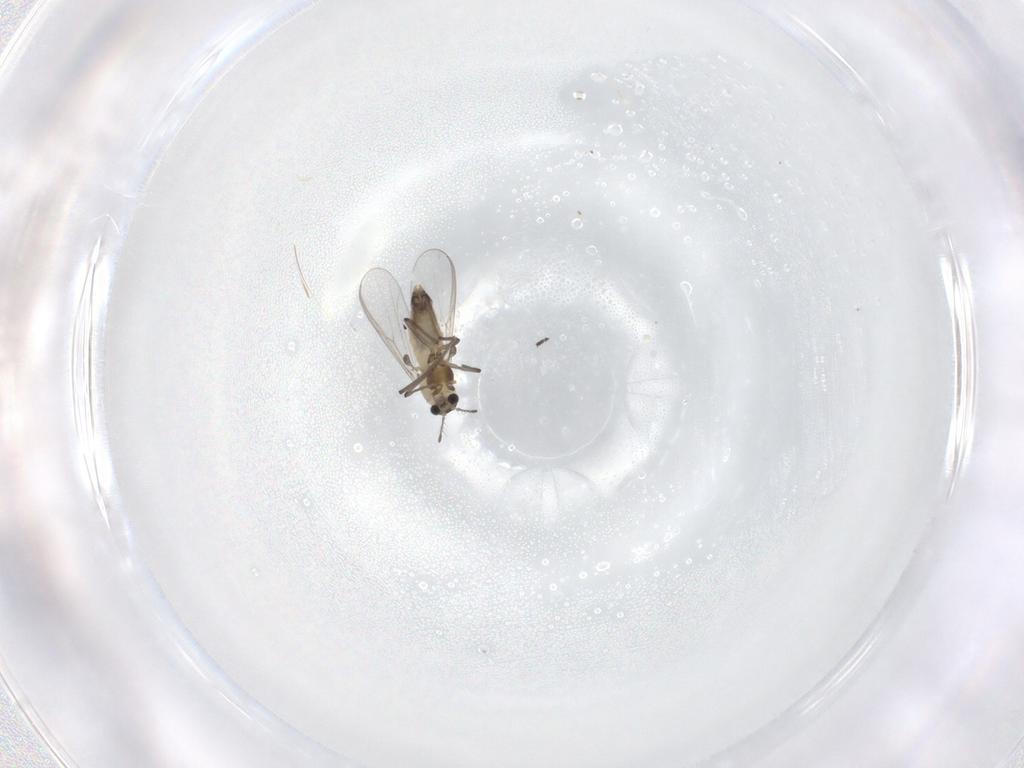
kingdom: Animalia
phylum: Arthropoda
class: Insecta
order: Diptera
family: Chironomidae
